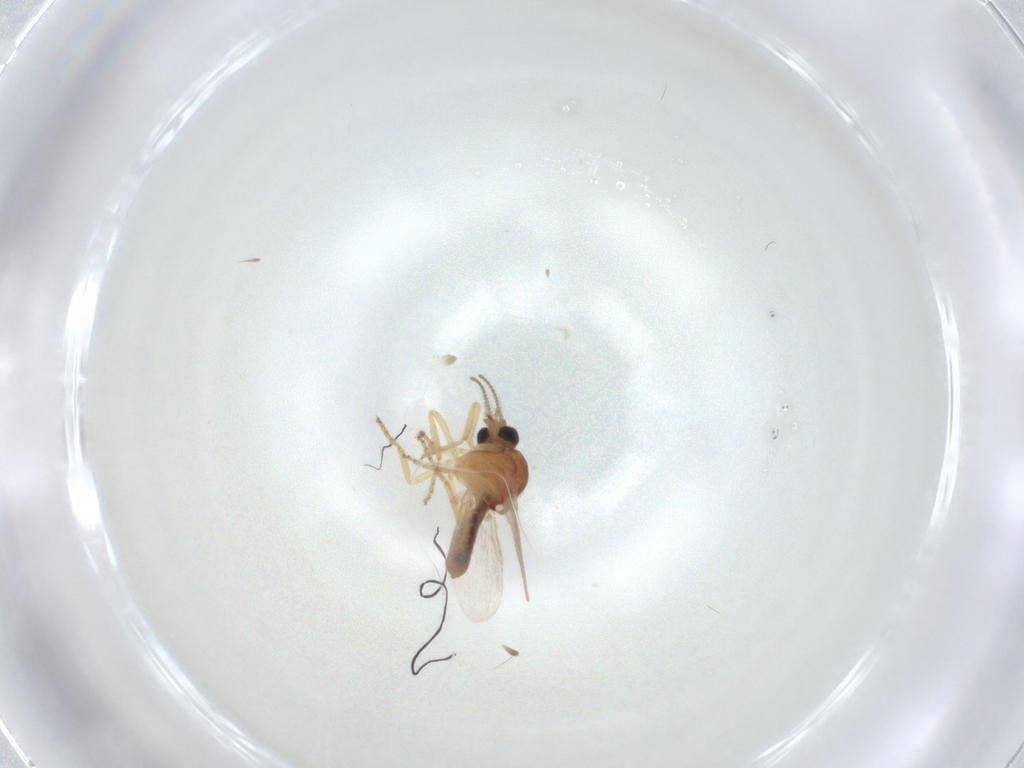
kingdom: Animalia
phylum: Arthropoda
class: Insecta
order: Diptera
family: Ceratopogonidae
